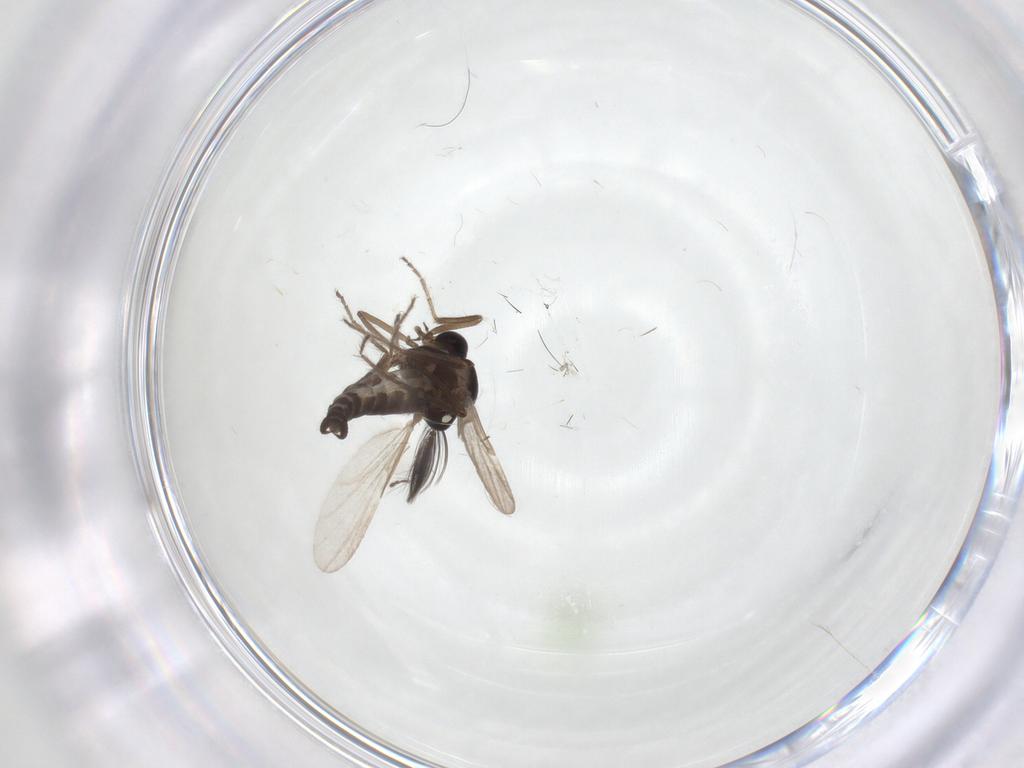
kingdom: Animalia
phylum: Arthropoda
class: Insecta
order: Diptera
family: Ceratopogonidae
